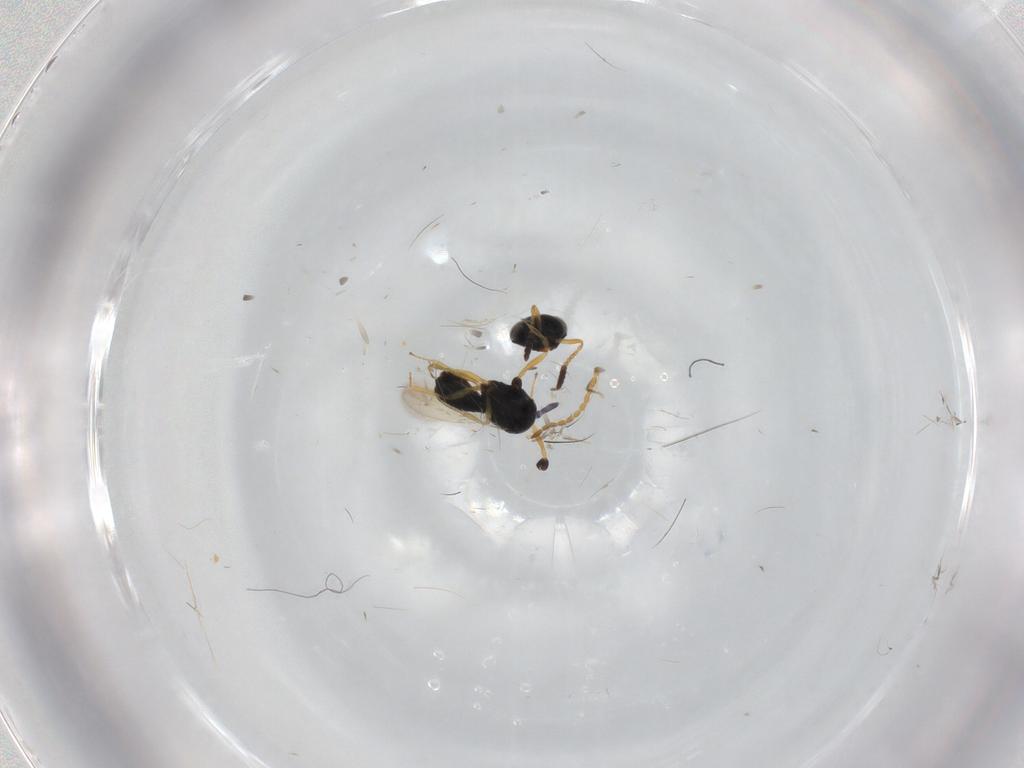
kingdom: Animalia
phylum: Arthropoda
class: Insecta
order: Hymenoptera
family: Scelionidae
